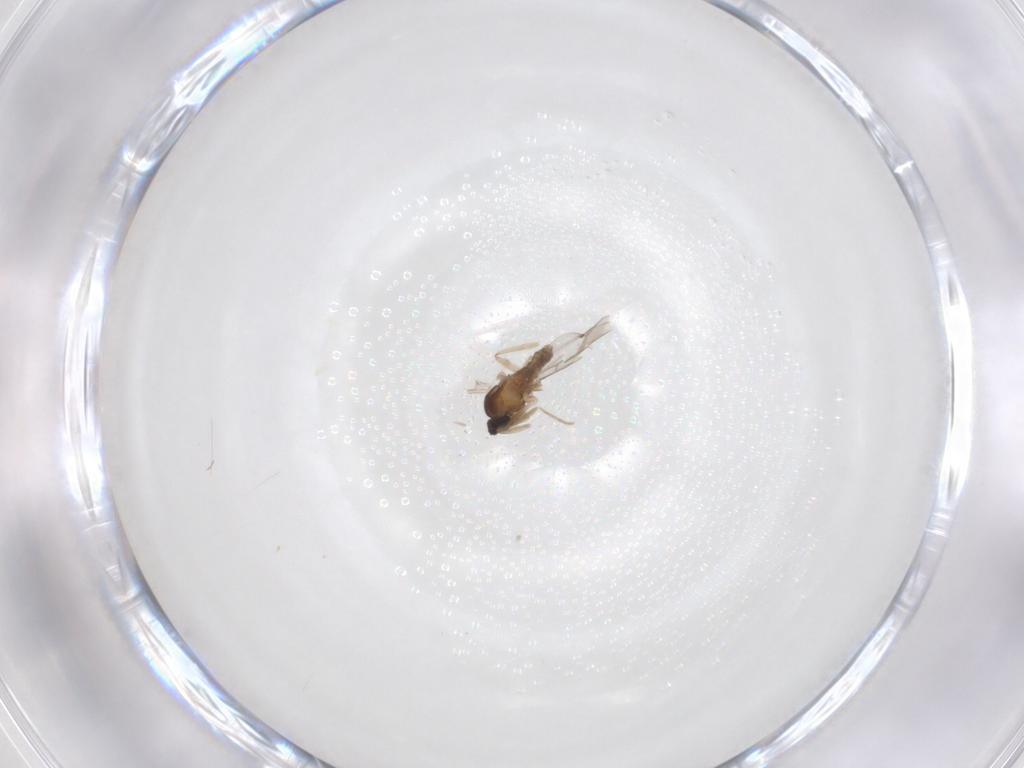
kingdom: Animalia
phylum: Arthropoda
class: Insecta
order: Diptera
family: Cecidomyiidae
